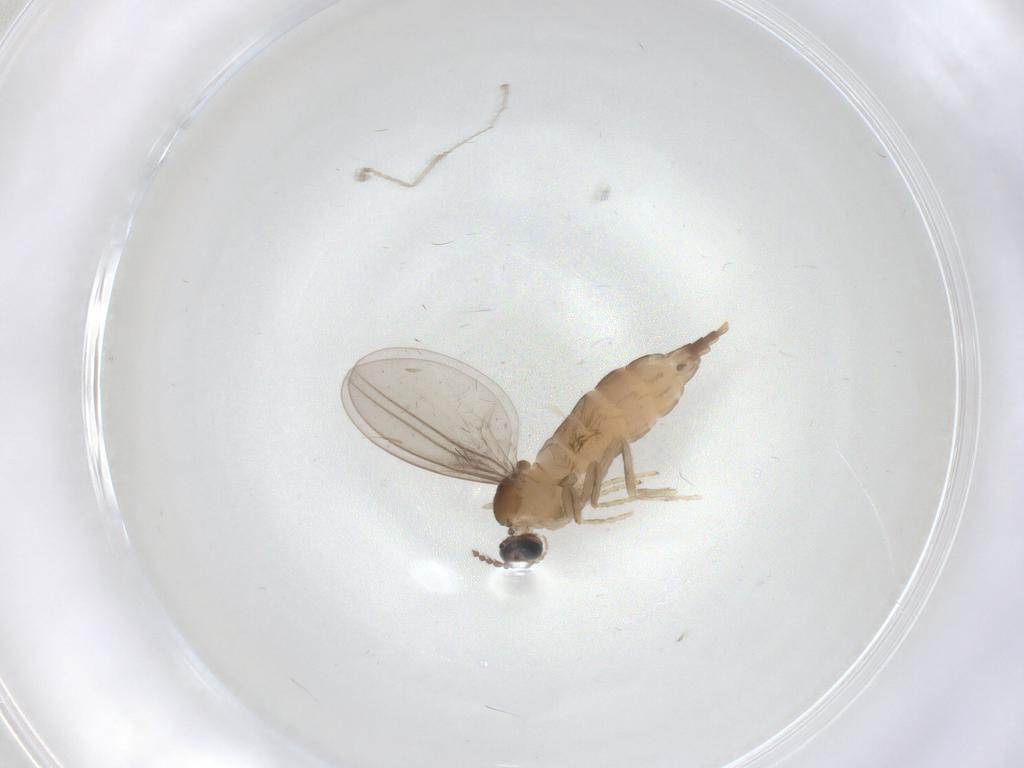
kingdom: Animalia
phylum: Arthropoda
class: Insecta
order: Diptera
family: Cecidomyiidae
